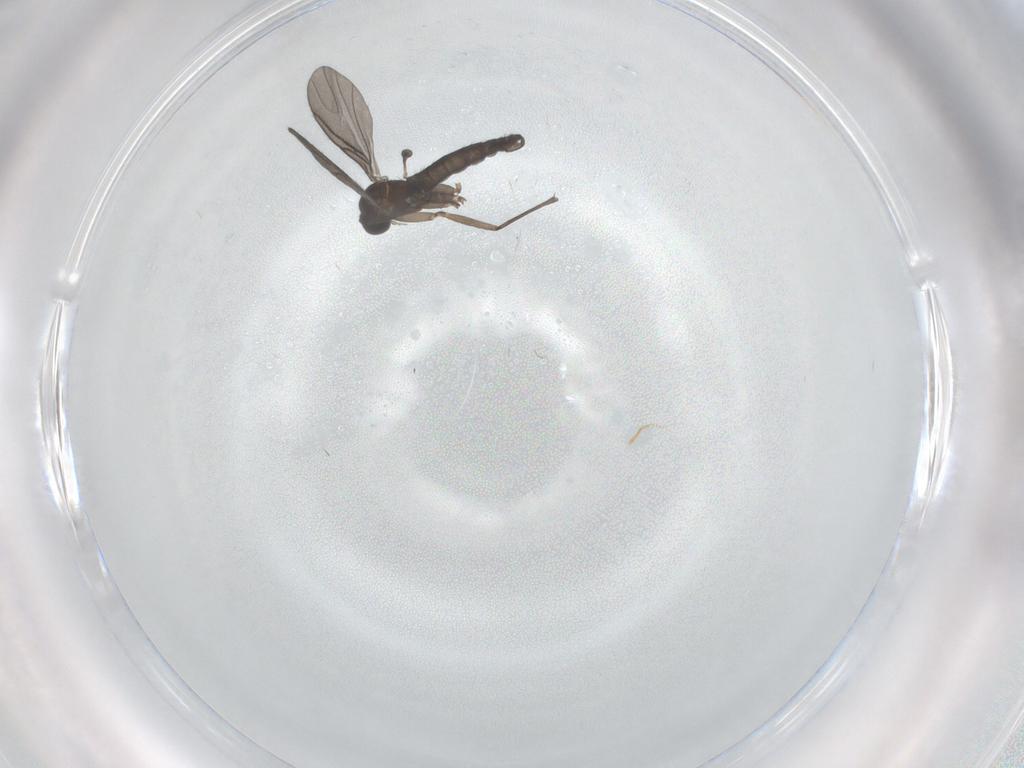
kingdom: Animalia
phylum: Arthropoda
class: Insecta
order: Diptera
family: Sciaridae
